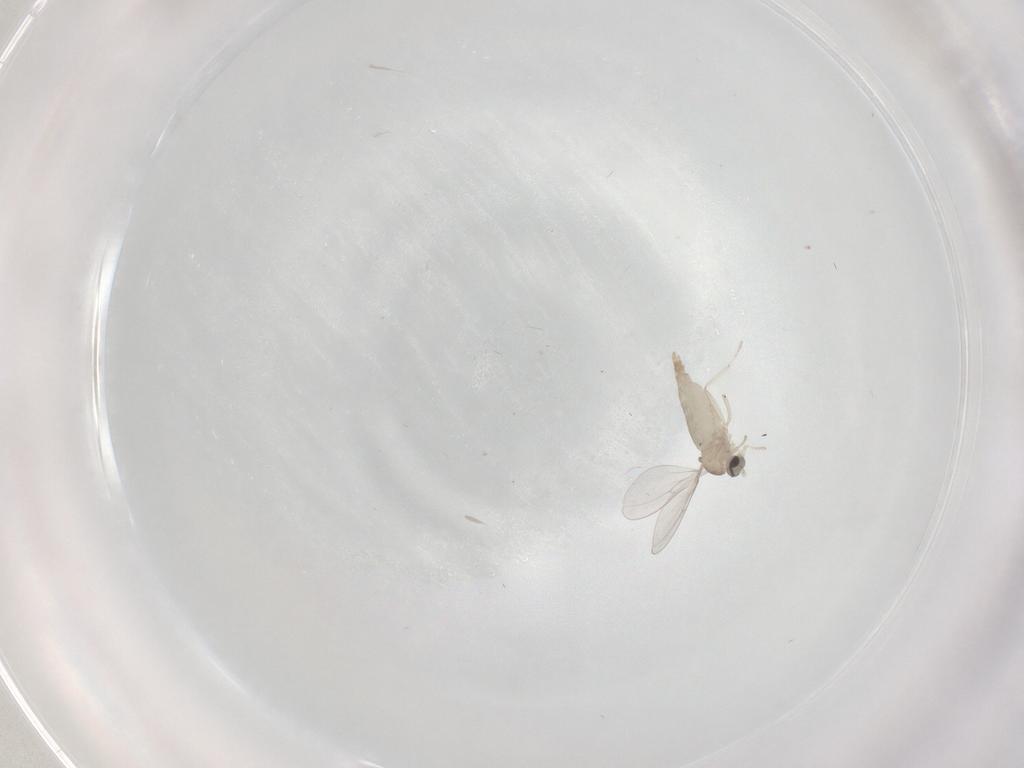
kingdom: Animalia
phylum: Arthropoda
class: Insecta
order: Diptera
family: Cecidomyiidae
